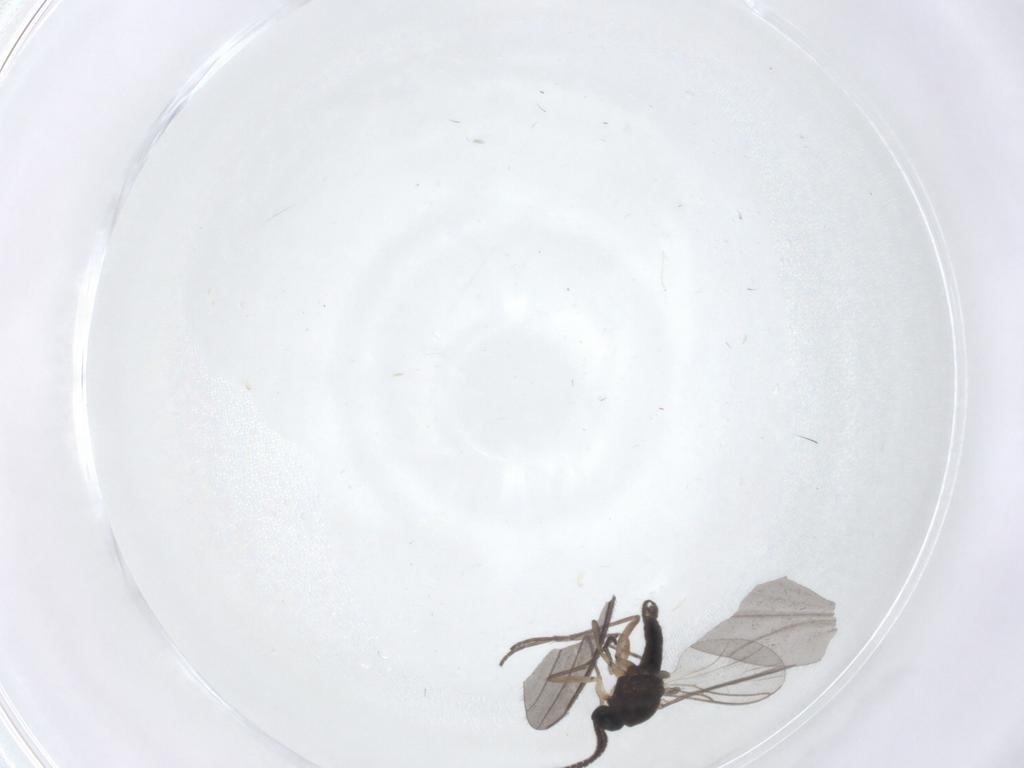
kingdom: Animalia
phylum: Arthropoda
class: Insecta
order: Diptera
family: Sciaridae
